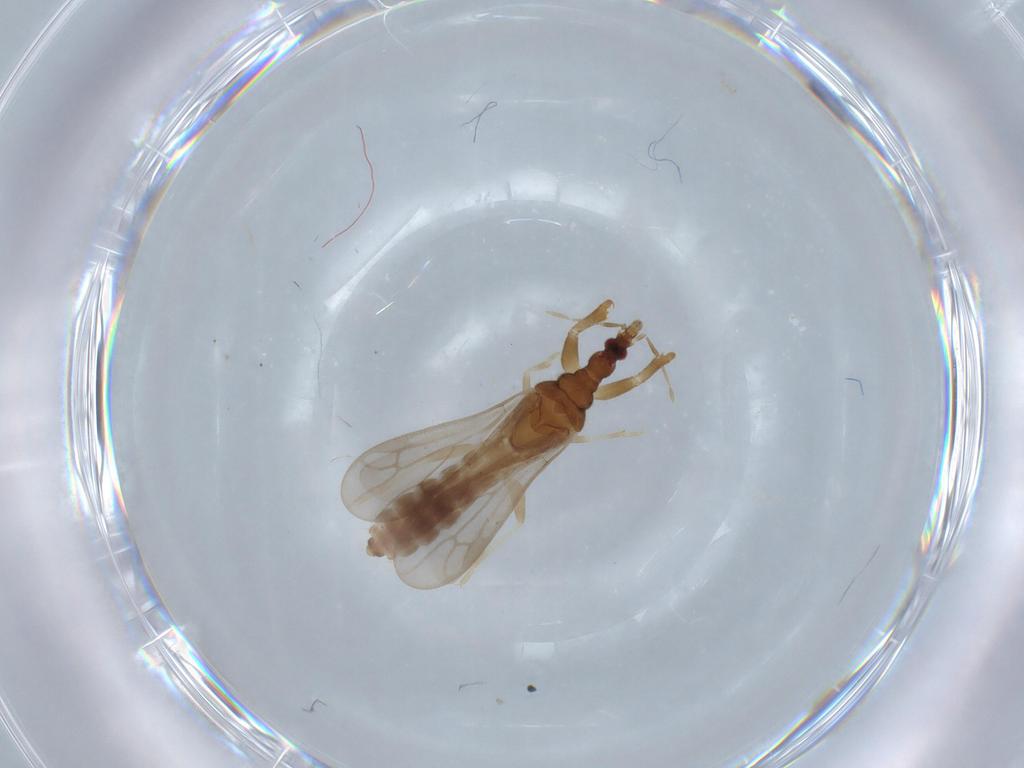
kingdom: Animalia
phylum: Arthropoda
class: Insecta
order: Hemiptera
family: Enicocephalidae
